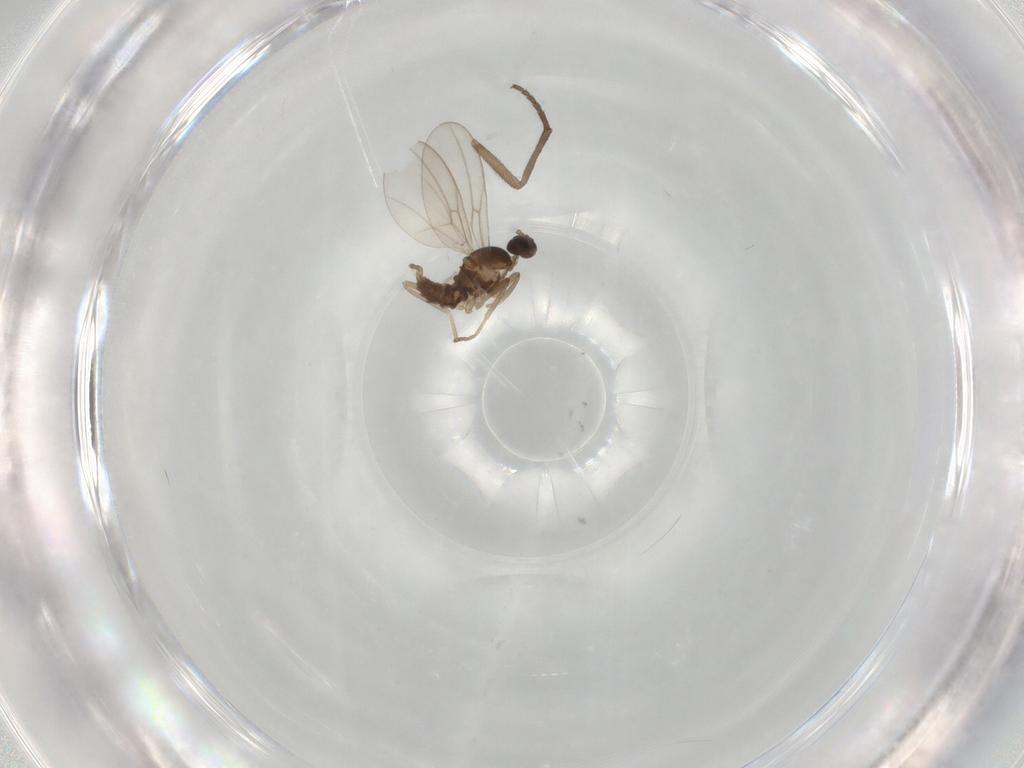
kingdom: Animalia
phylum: Arthropoda
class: Insecta
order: Diptera
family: Cecidomyiidae
